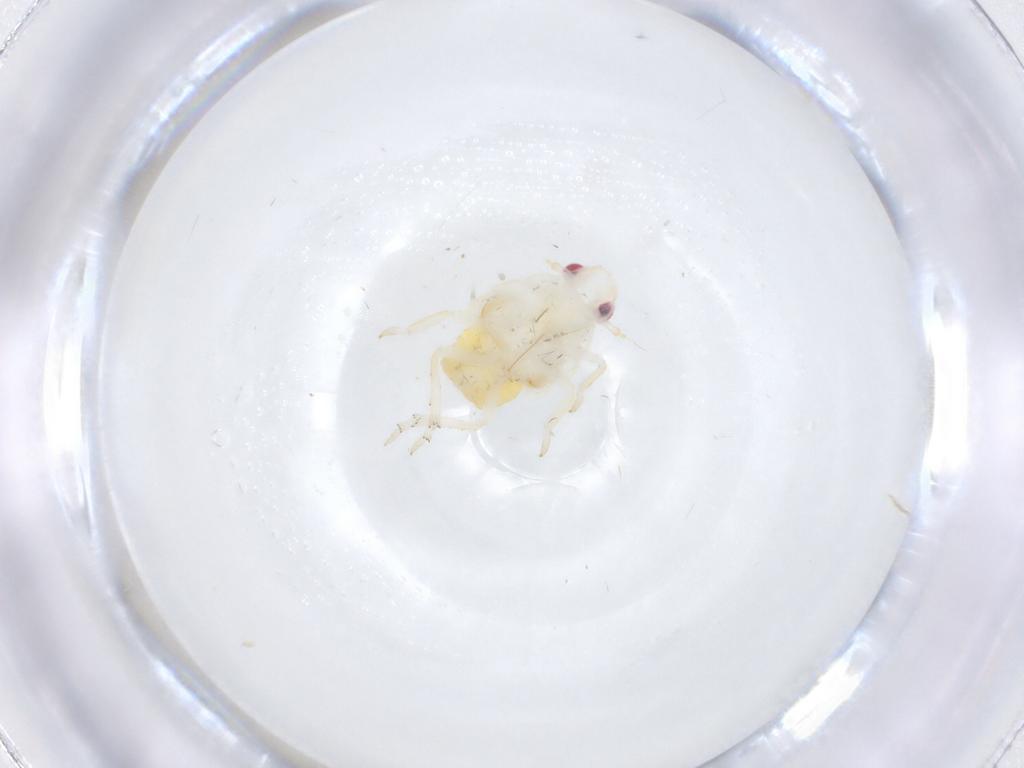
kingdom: Animalia
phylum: Arthropoda
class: Insecta
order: Hemiptera
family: Fulgoroidea_incertae_sedis
